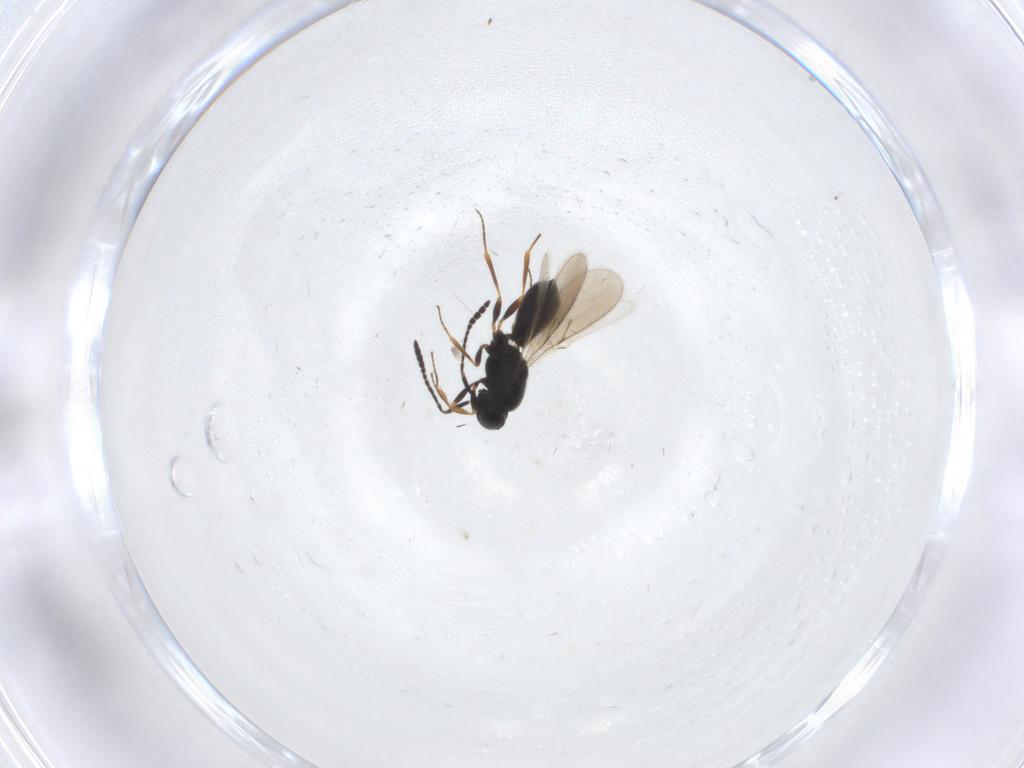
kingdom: Animalia
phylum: Arthropoda
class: Insecta
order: Hymenoptera
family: Scelionidae
